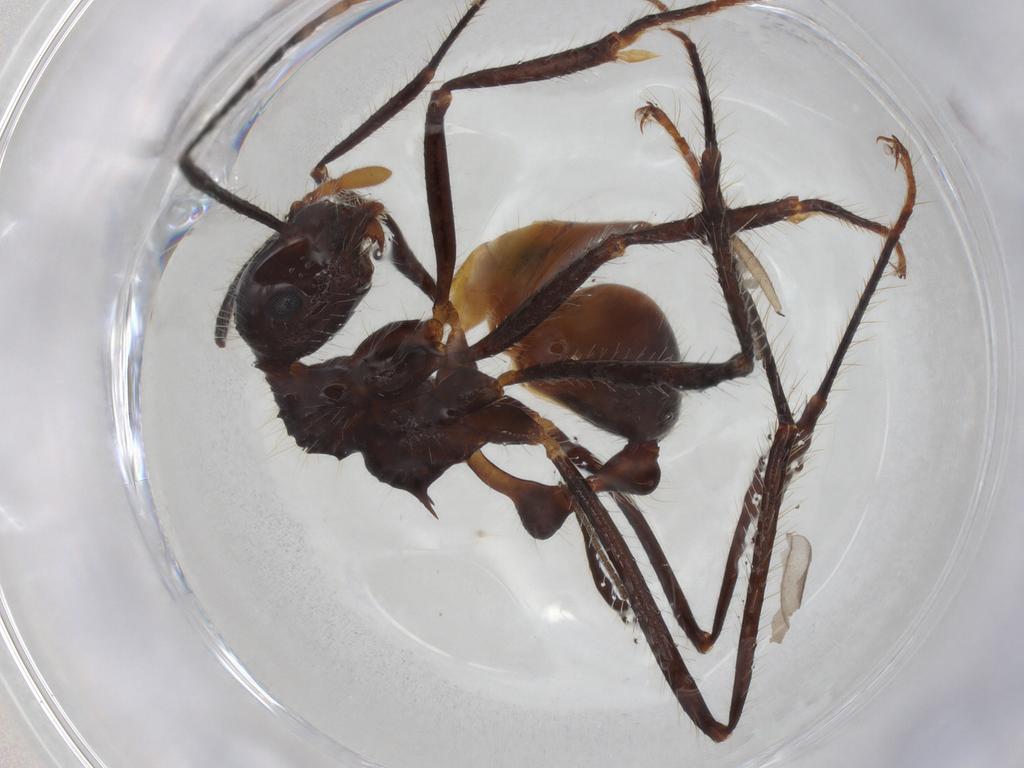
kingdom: Animalia
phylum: Arthropoda
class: Insecta
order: Hymenoptera
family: Formicidae
